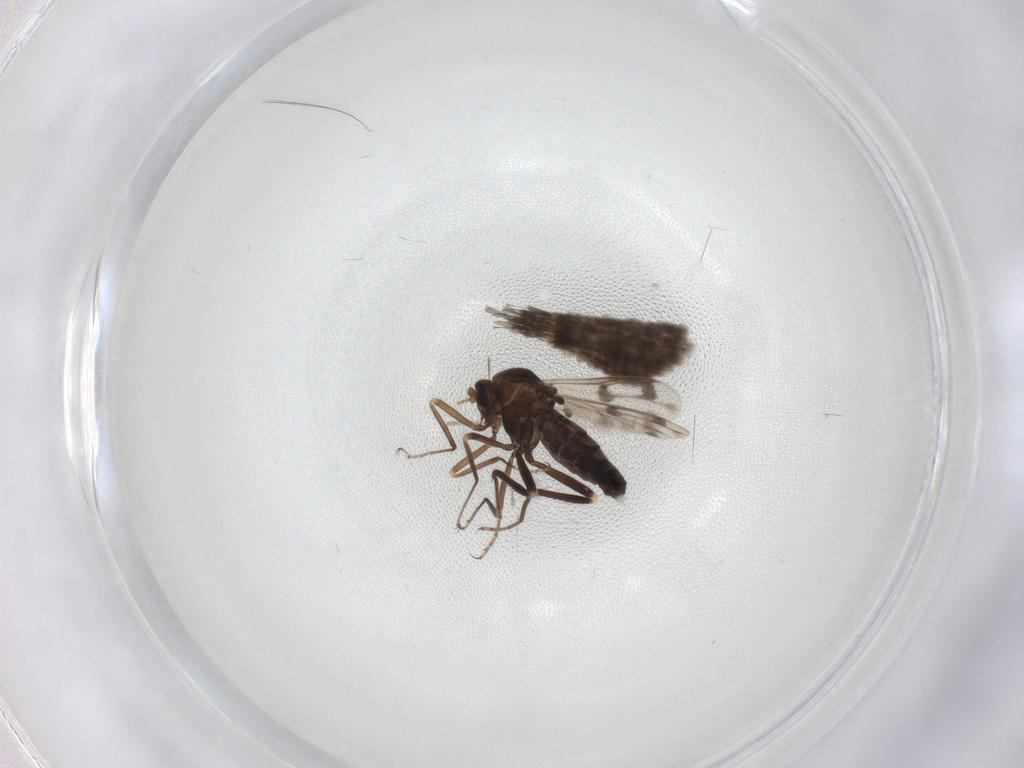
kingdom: Animalia
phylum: Arthropoda
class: Insecta
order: Diptera
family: Ceratopogonidae
